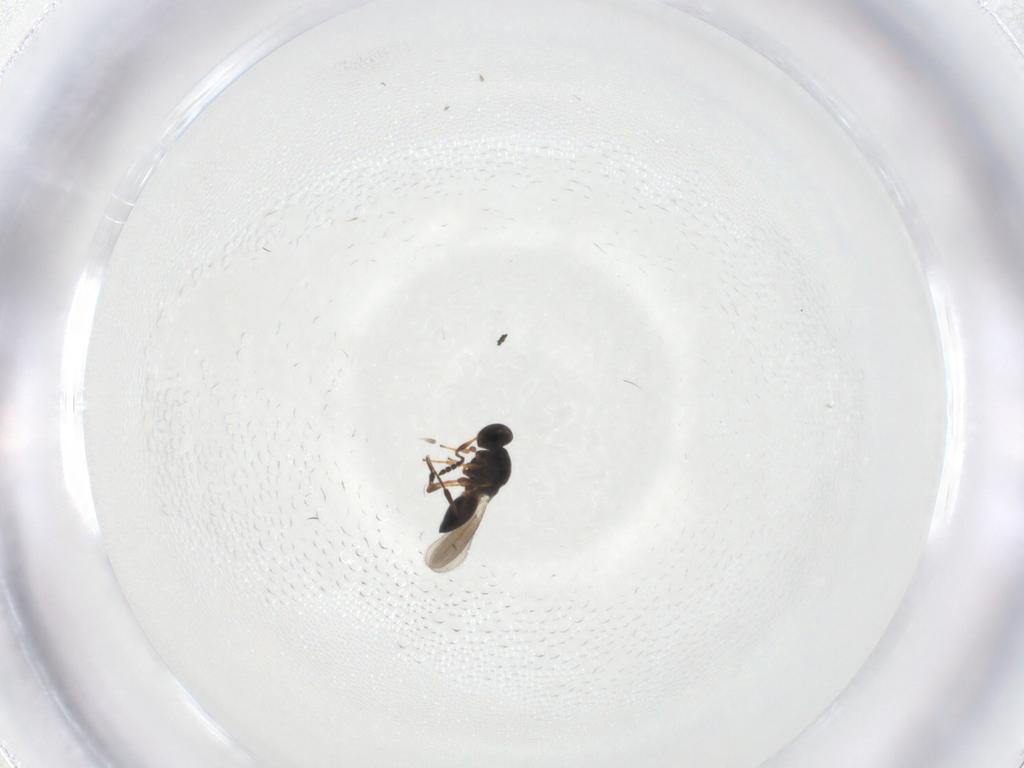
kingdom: Animalia
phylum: Arthropoda
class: Insecta
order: Hymenoptera
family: Platygastridae
